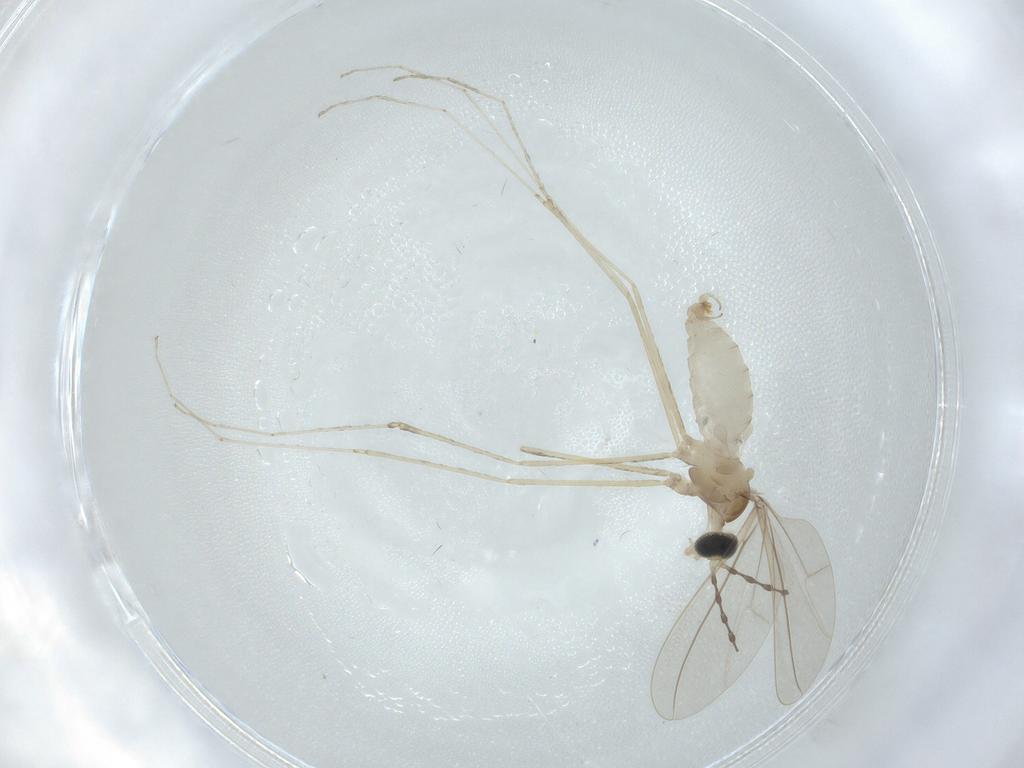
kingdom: Animalia
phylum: Arthropoda
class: Insecta
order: Diptera
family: Cecidomyiidae
